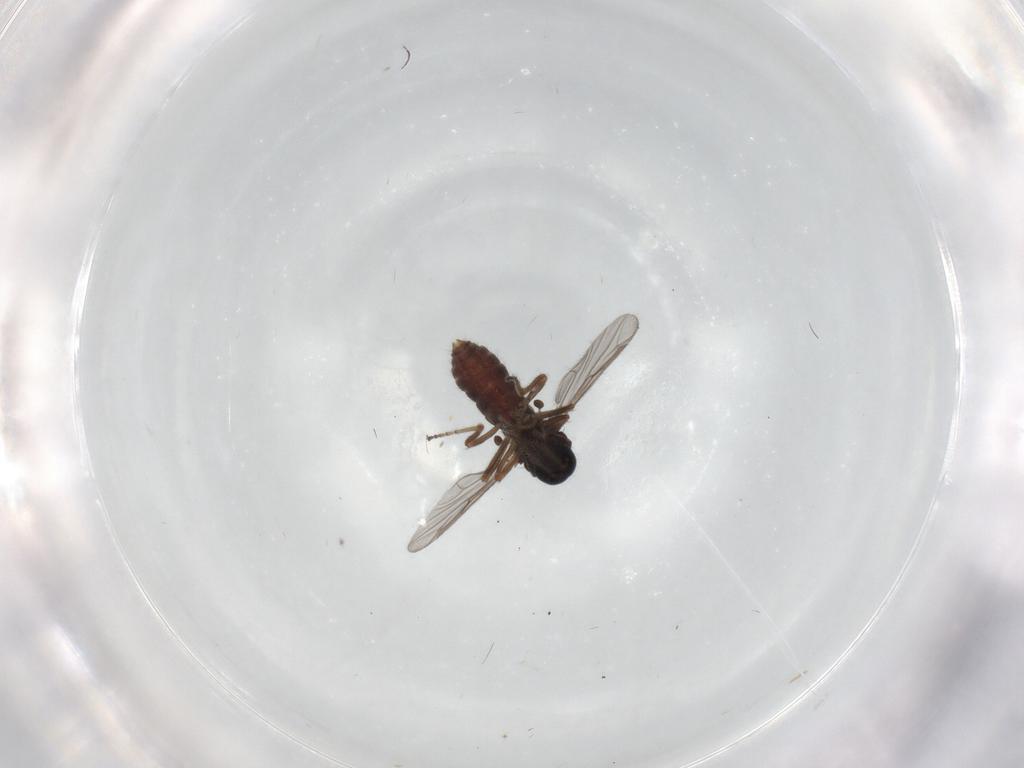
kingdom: Animalia
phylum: Arthropoda
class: Insecta
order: Diptera
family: Ceratopogonidae
